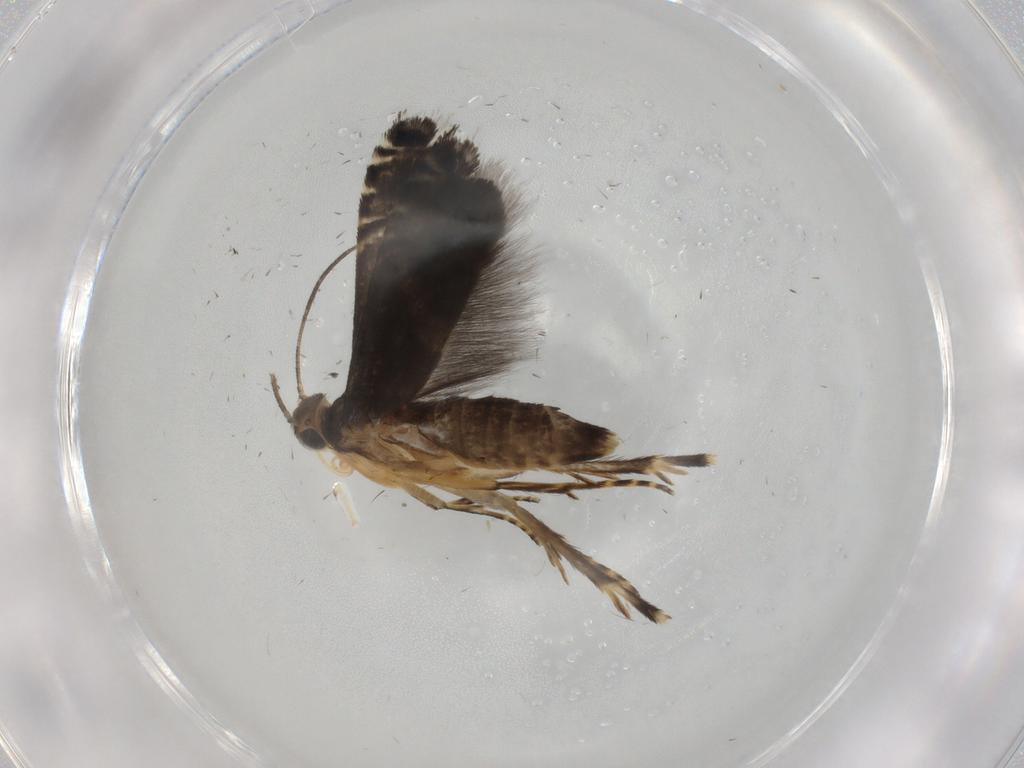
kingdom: Animalia
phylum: Arthropoda
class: Insecta
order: Lepidoptera
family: Glyphipterigidae
